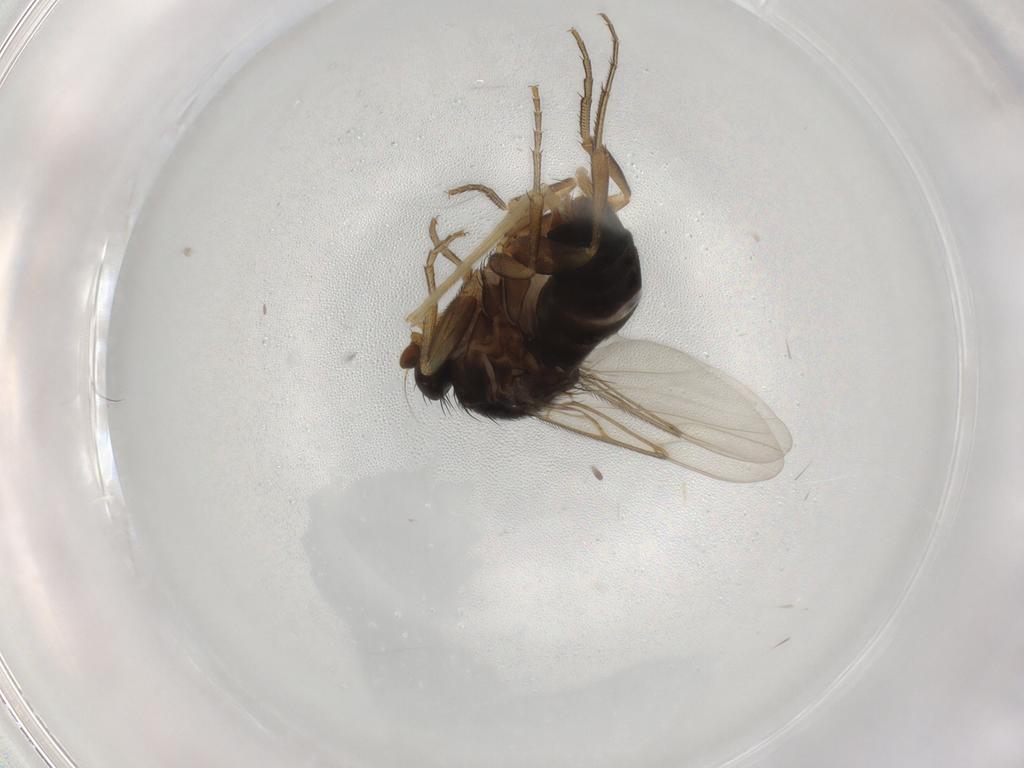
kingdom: Animalia
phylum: Arthropoda
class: Insecta
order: Diptera
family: Phoridae
